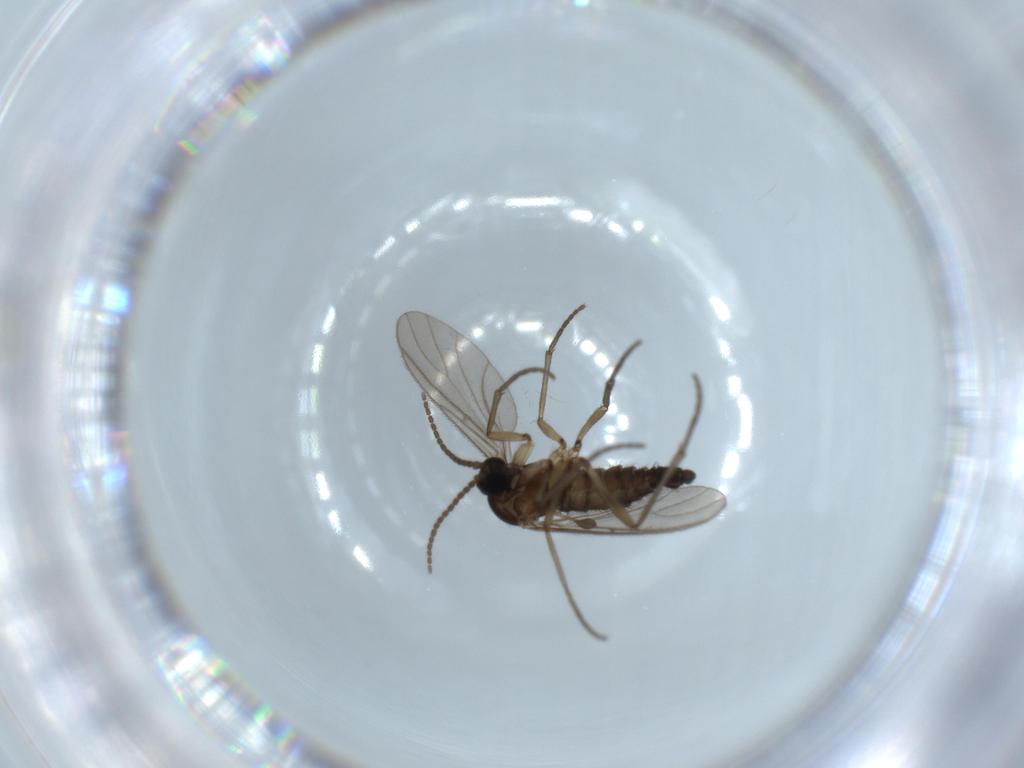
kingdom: Animalia
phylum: Arthropoda
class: Insecta
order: Diptera
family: Sciaridae
